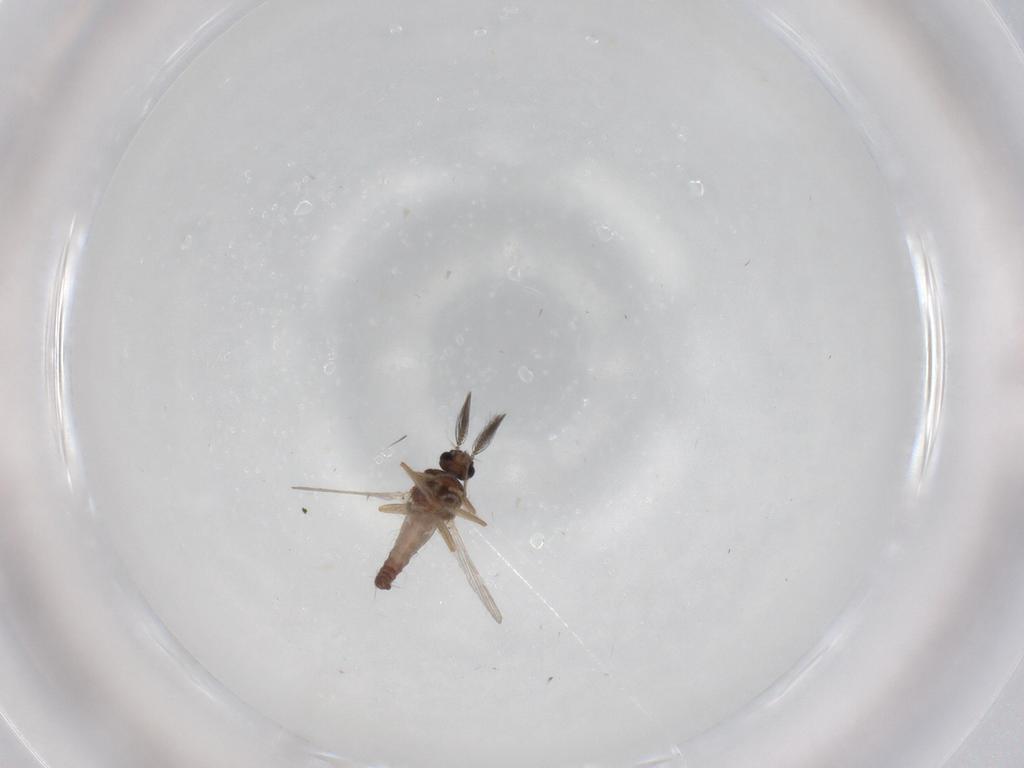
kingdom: Animalia
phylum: Arthropoda
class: Insecta
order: Diptera
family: Ceratopogonidae
